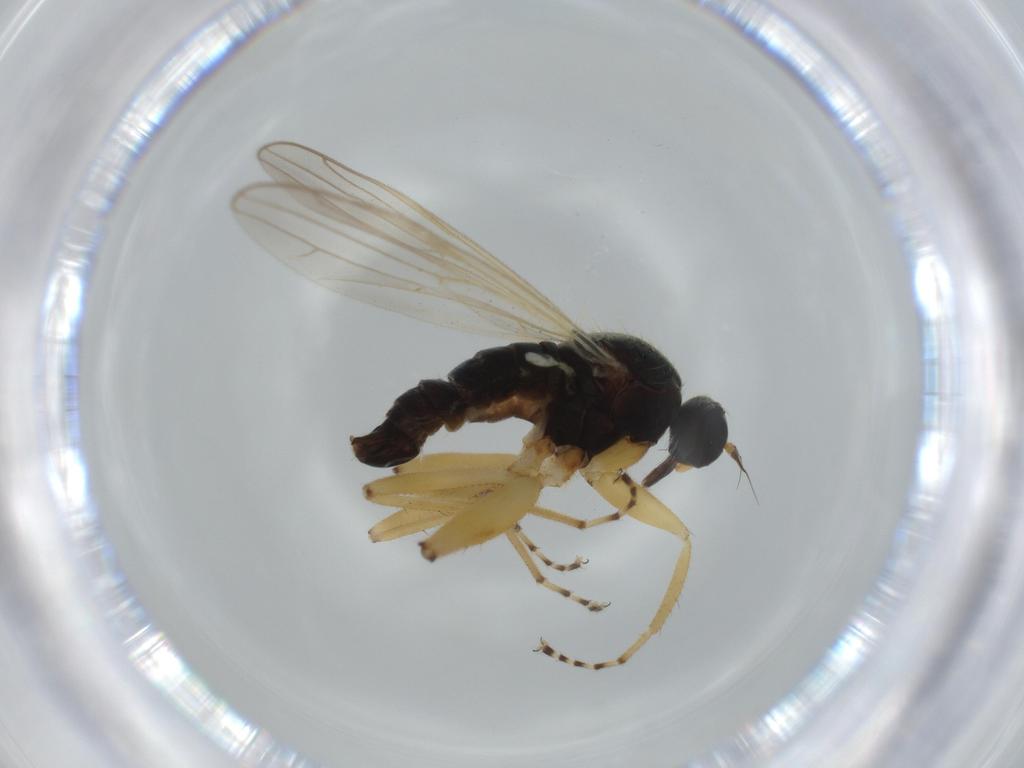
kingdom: Animalia
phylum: Arthropoda
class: Insecta
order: Diptera
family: Hybotidae
